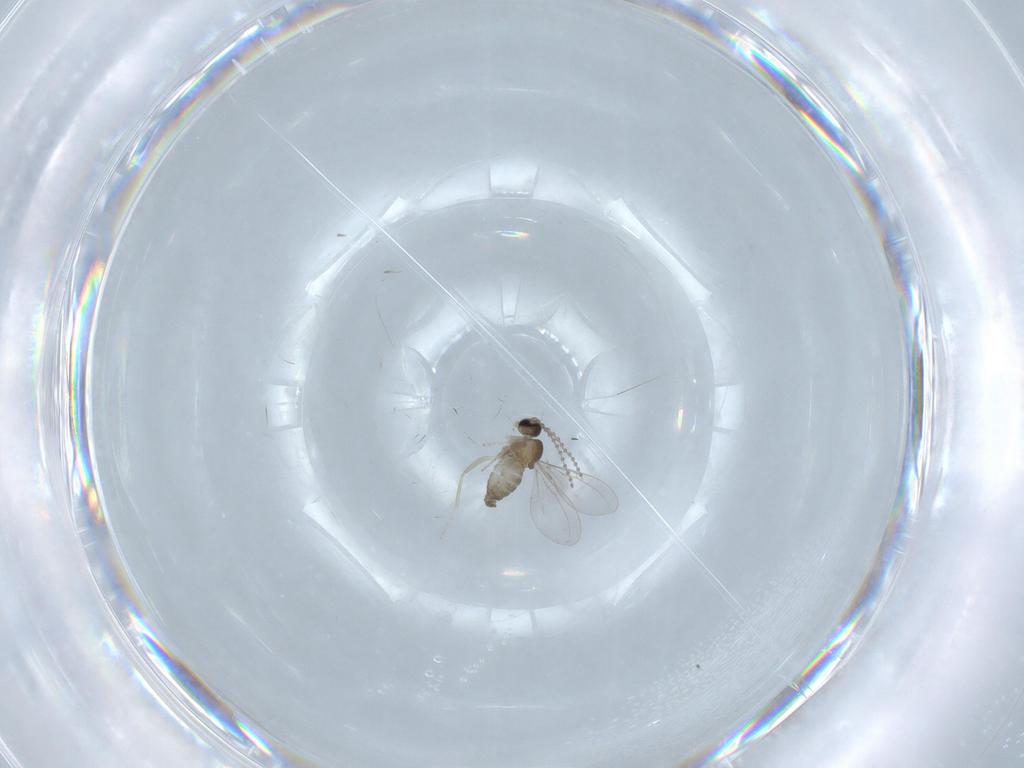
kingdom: Animalia
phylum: Arthropoda
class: Insecta
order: Diptera
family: Cecidomyiidae
